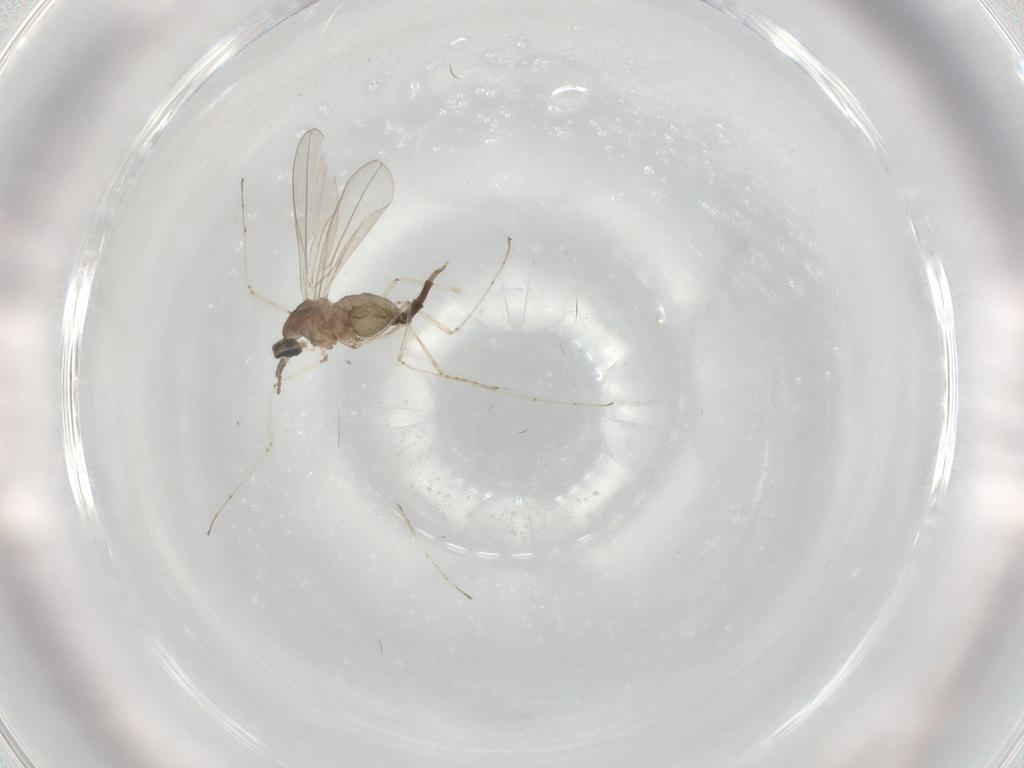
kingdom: Animalia
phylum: Arthropoda
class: Insecta
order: Diptera
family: Cecidomyiidae
